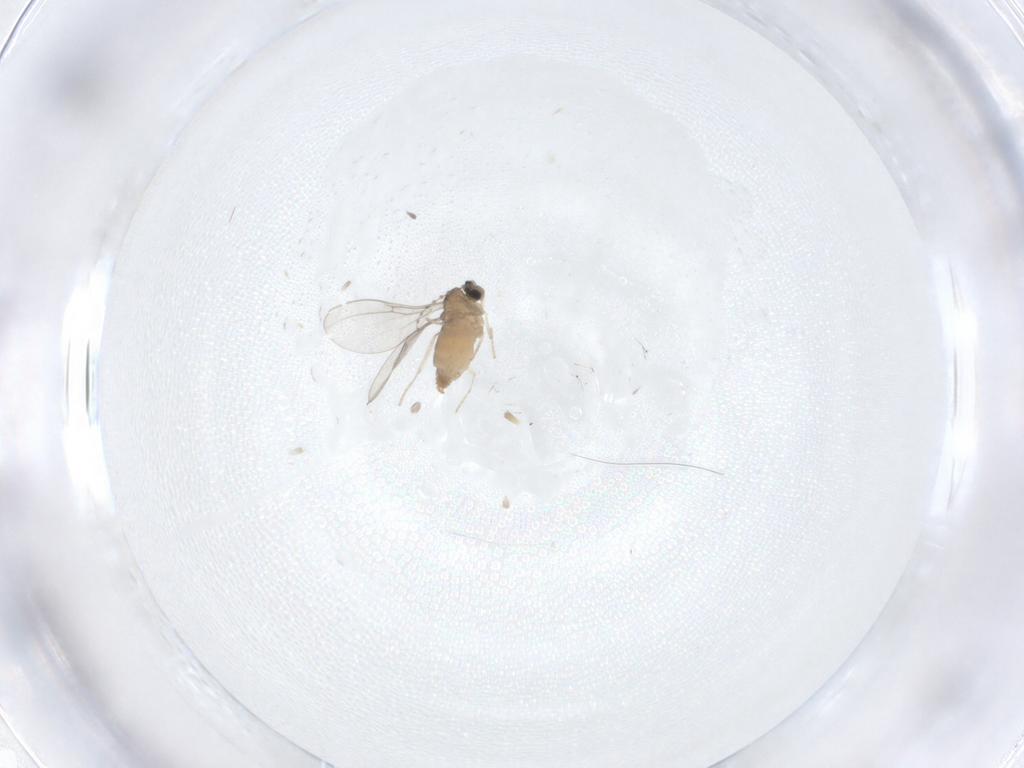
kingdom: Animalia
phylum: Arthropoda
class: Insecta
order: Diptera
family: Cecidomyiidae
